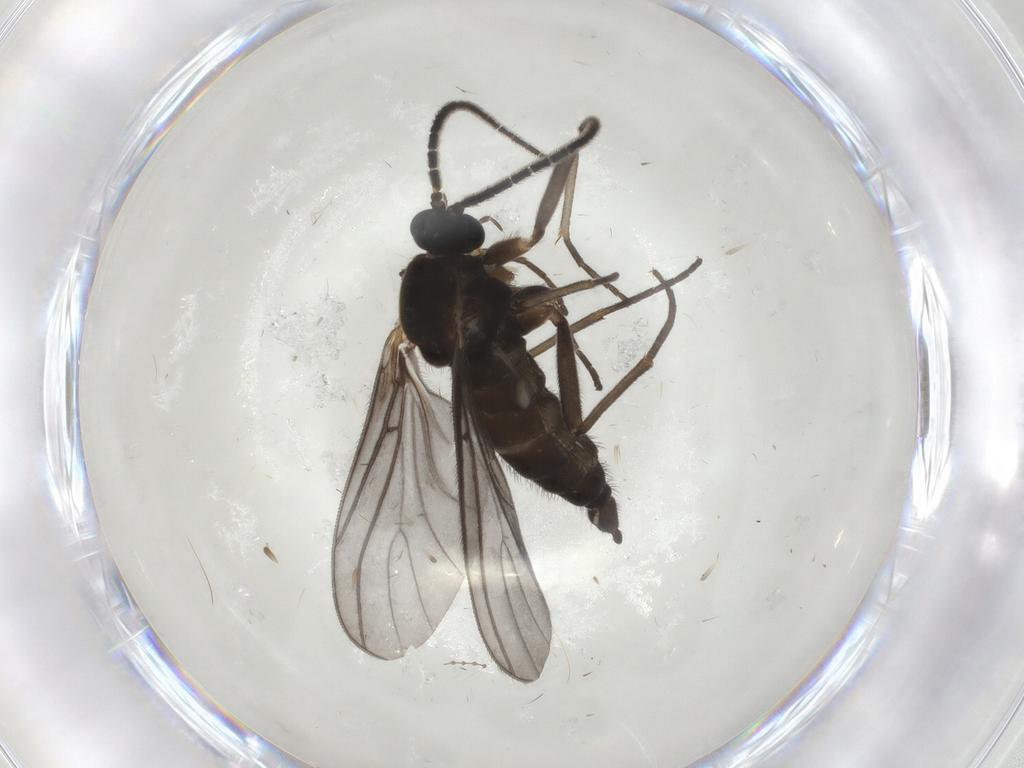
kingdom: Animalia
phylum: Arthropoda
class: Insecta
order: Diptera
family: Sciaridae
